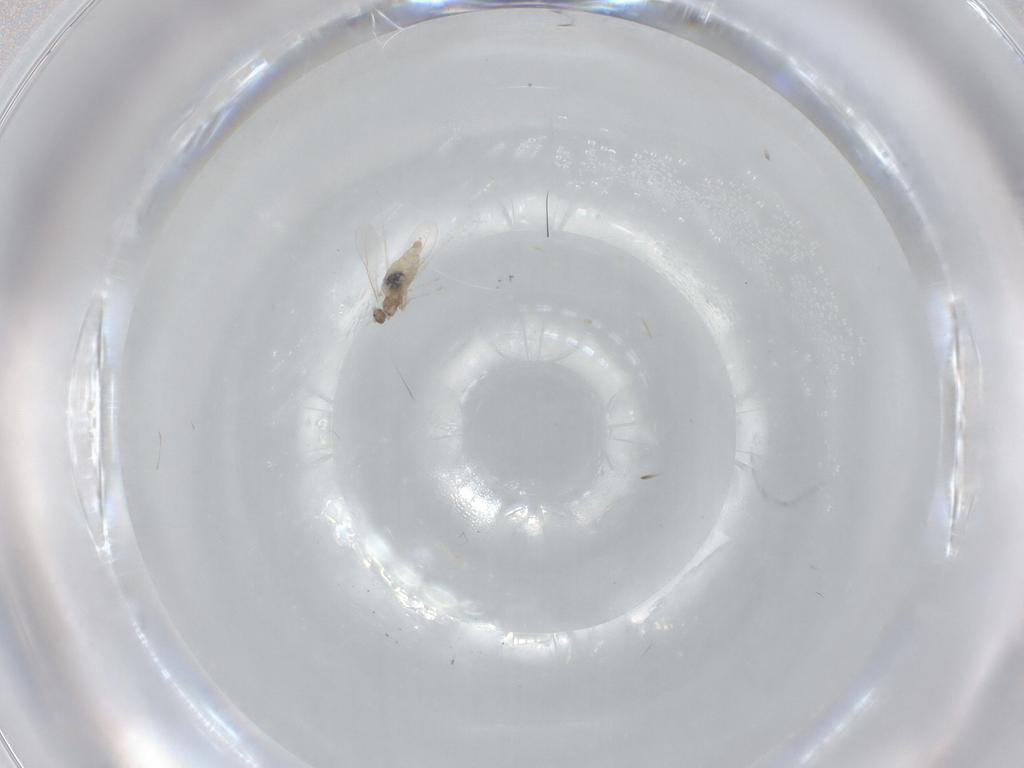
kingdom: Animalia
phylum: Arthropoda
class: Insecta
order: Diptera
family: Cecidomyiidae
